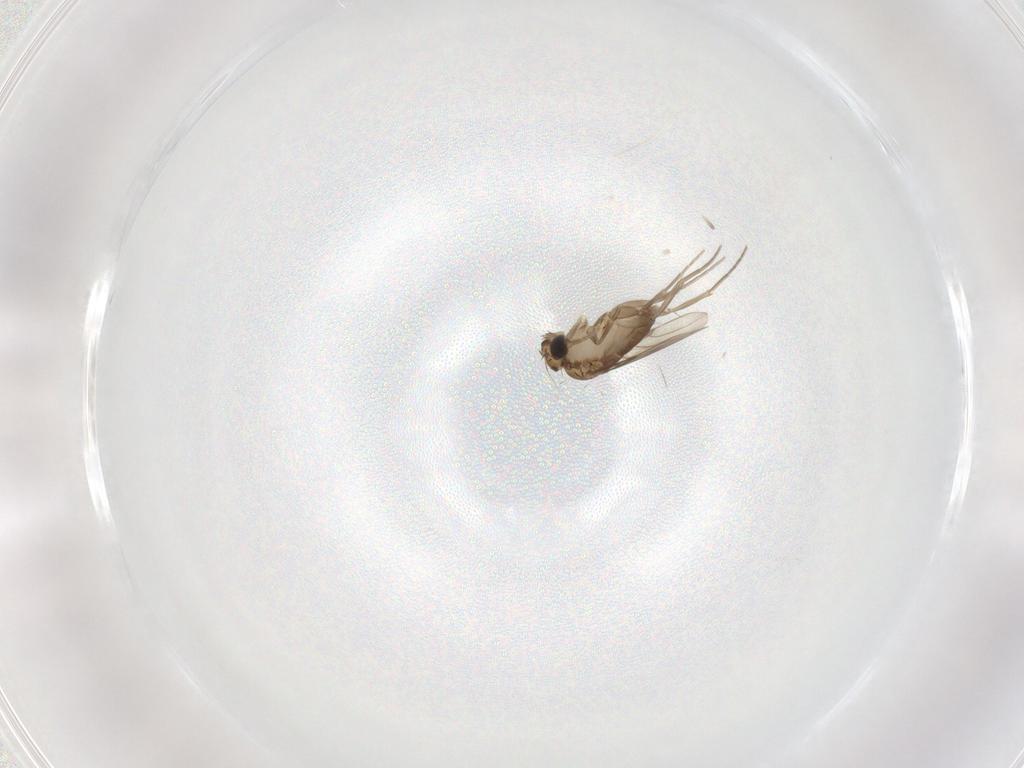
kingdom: Animalia
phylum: Arthropoda
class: Insecta
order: Diptera
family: Phoridae
